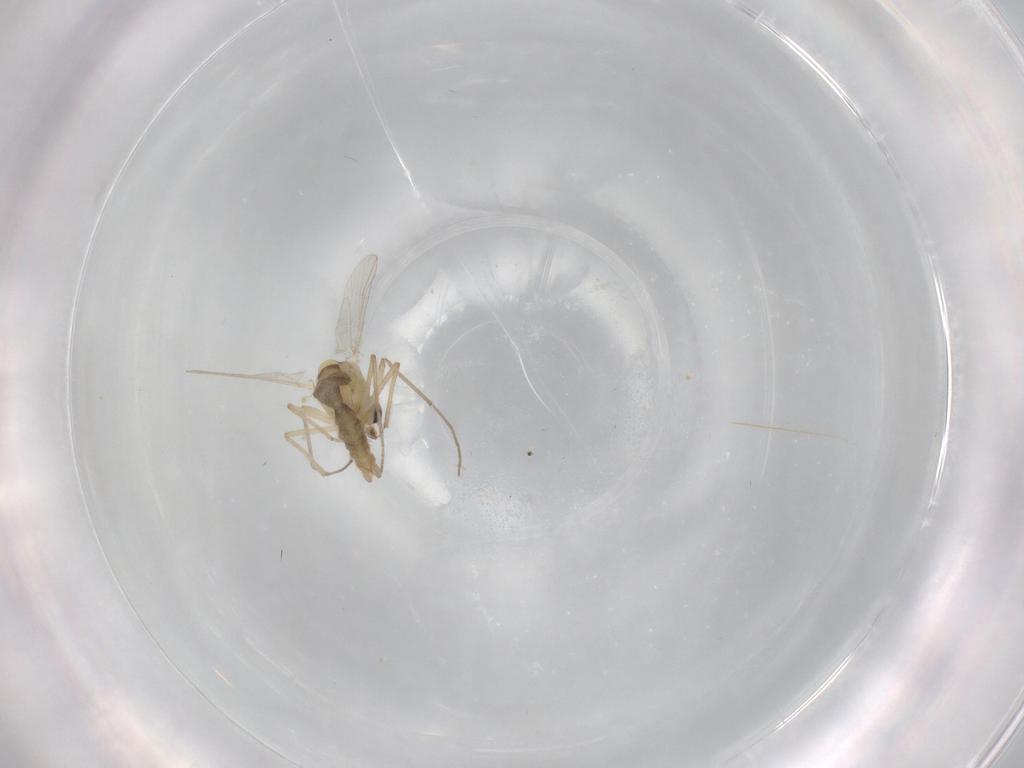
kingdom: Animalia
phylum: Arthropoda
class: Insecta
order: Diptera
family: Chironomidae
